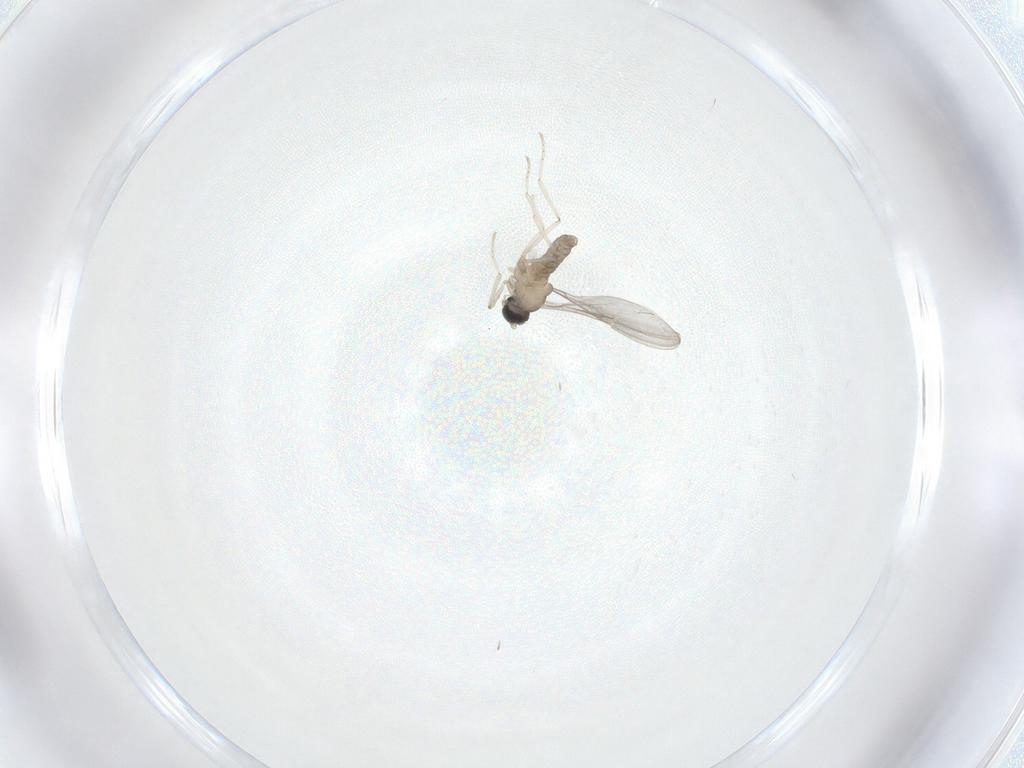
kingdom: Animalia
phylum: Arthropoda
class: Insecta
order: Diptera
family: Cecidomyiidae
